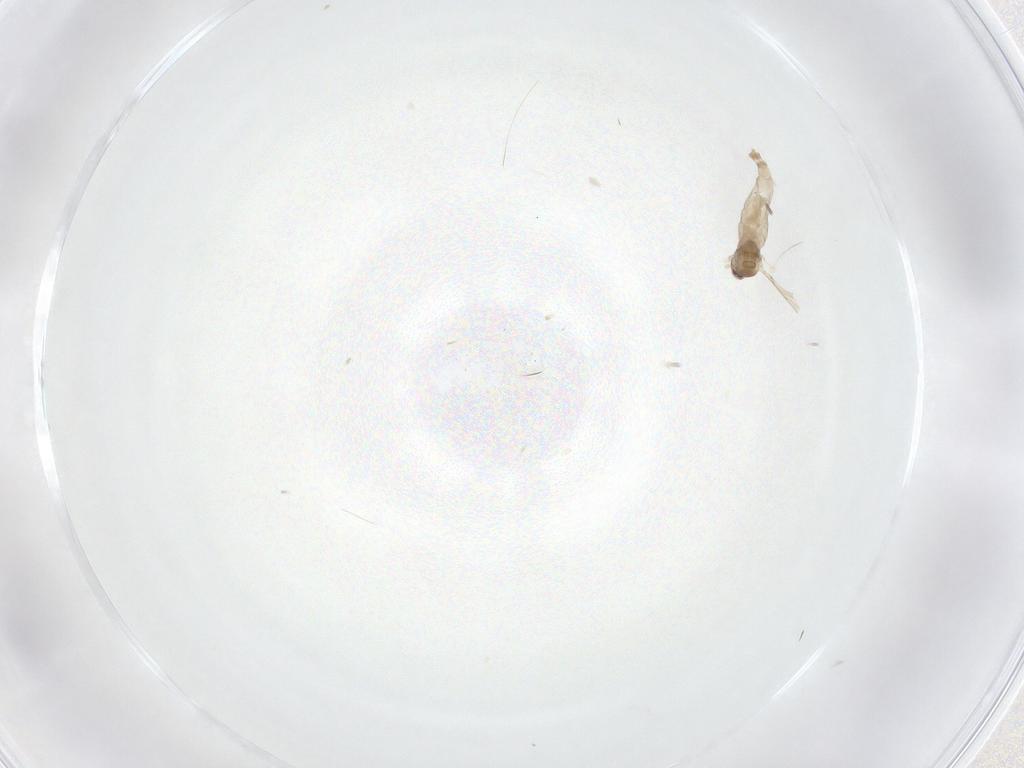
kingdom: Animalia
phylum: Arthropoda
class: Insecta
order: Diptera
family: Cecidomyiidae
